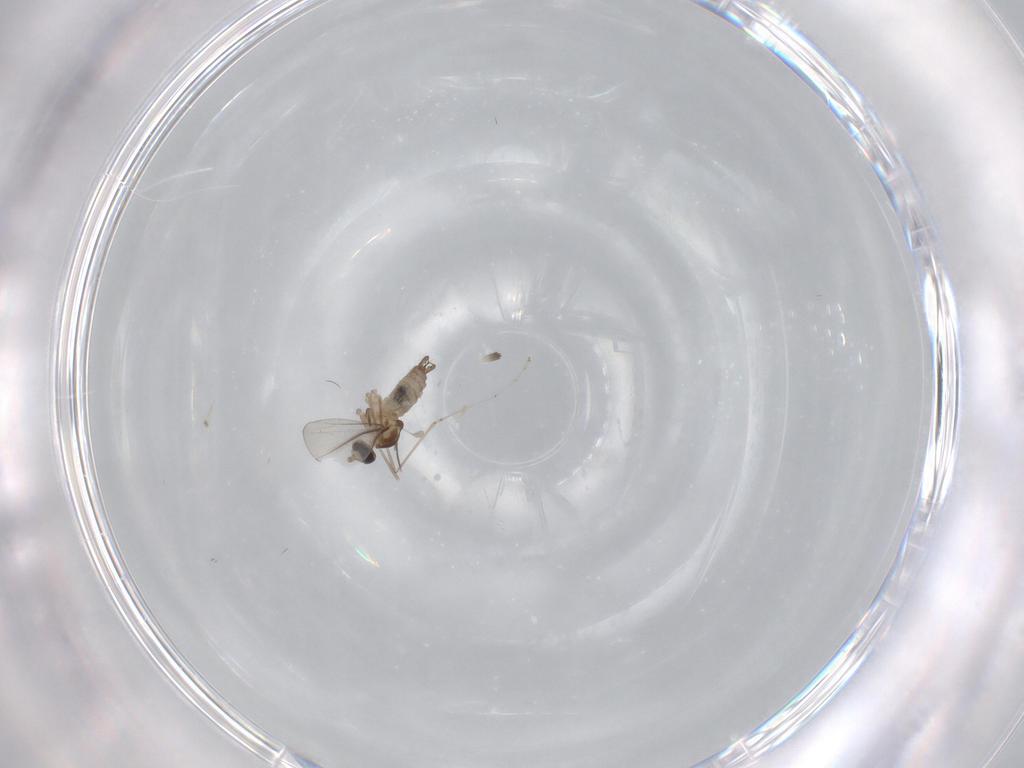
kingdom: Animalia
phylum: Arthropoda
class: Insecta
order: Diptera
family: Cecidomyiidae
